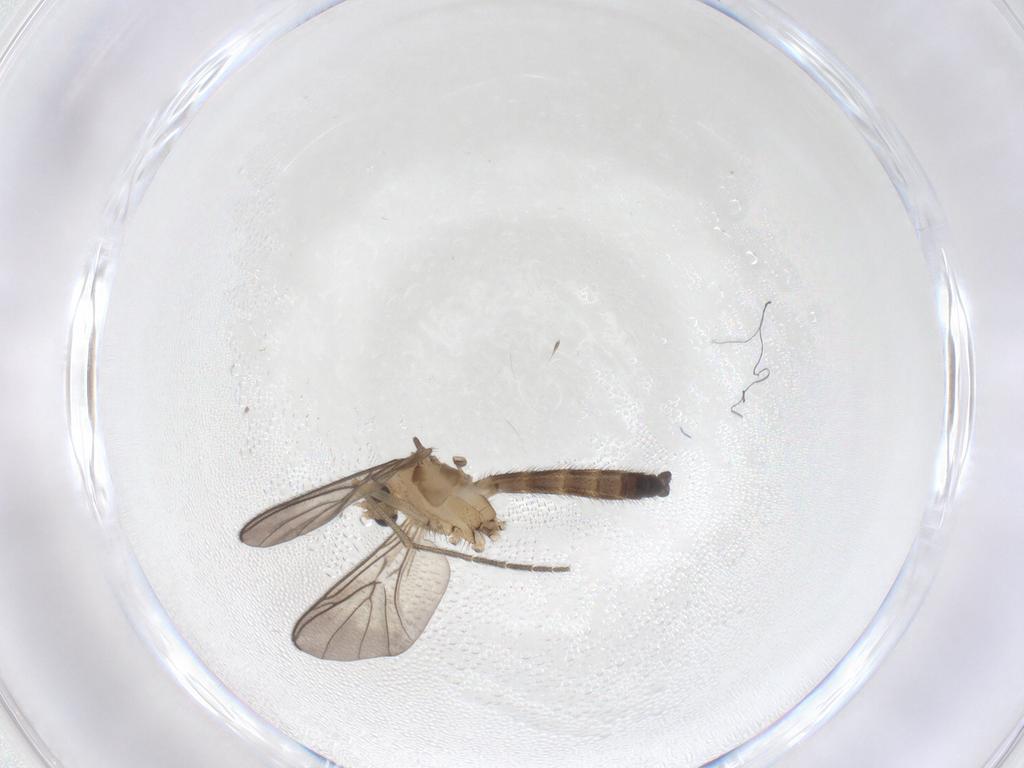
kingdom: Animalia
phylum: Arthropoda
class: Insecta
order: Diptera
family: Keroplatidae
